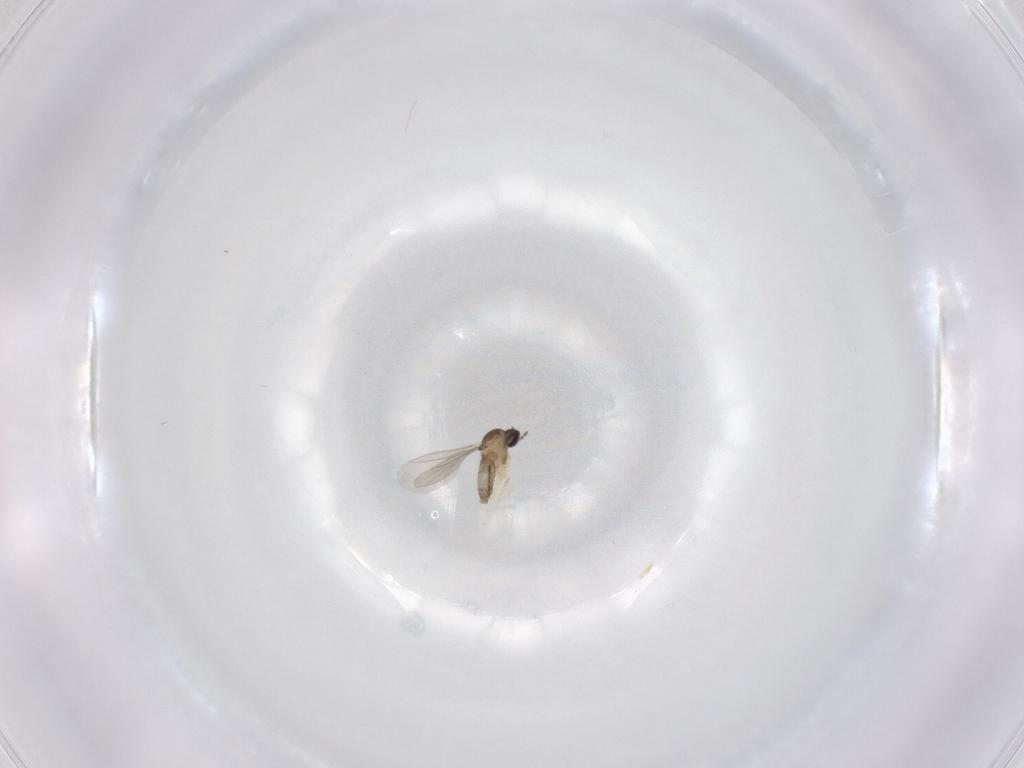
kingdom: Animalia
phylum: Arthropoda
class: Insecta
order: Diptera
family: Cecidomyiidae
